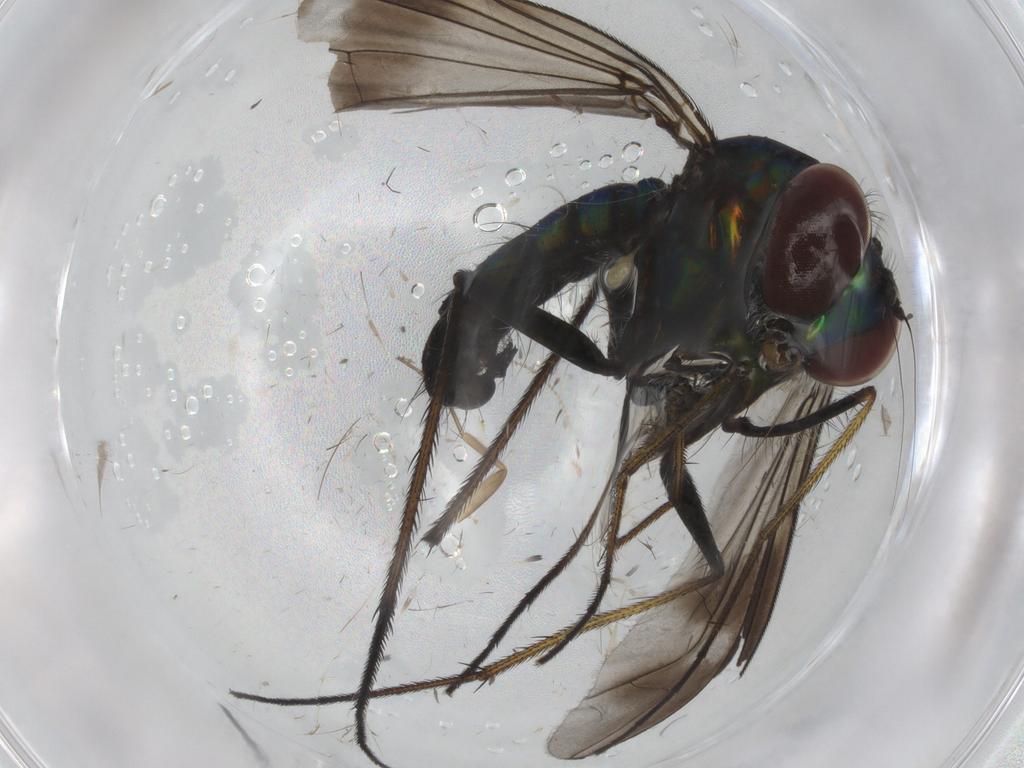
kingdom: Animalia
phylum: Arthropoda
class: Insecta
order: Diptera
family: Dolichopodidae
